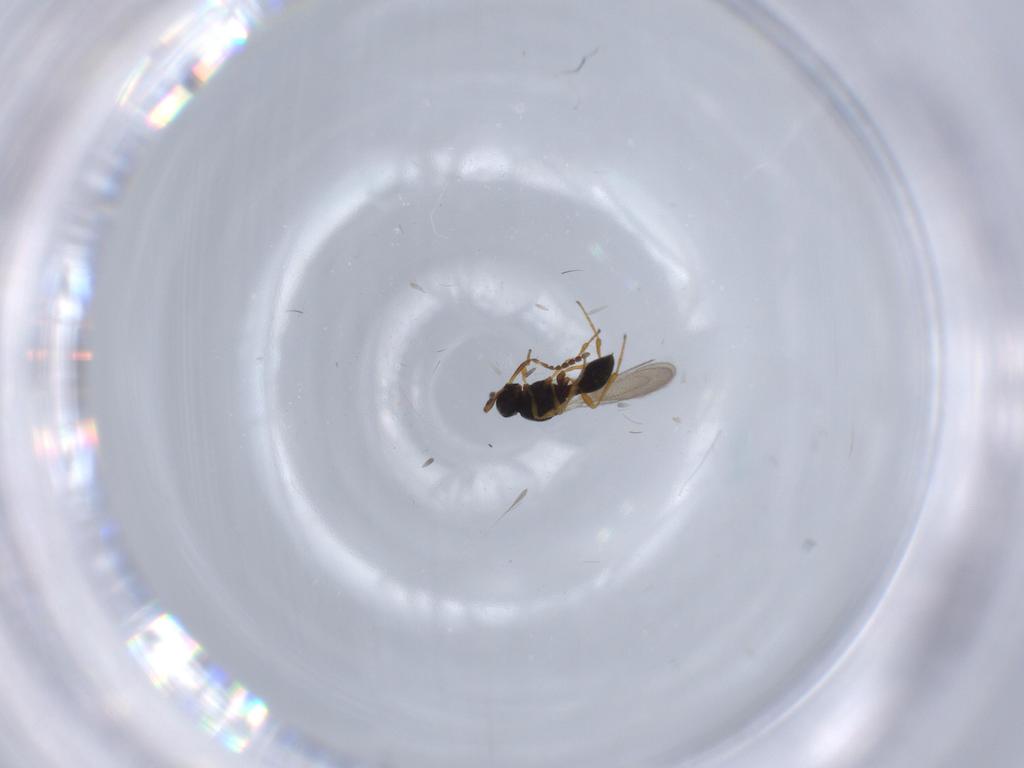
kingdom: Animalia
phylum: Arthropoda
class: Insecta
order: Diptera
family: Mythicomyiidae
